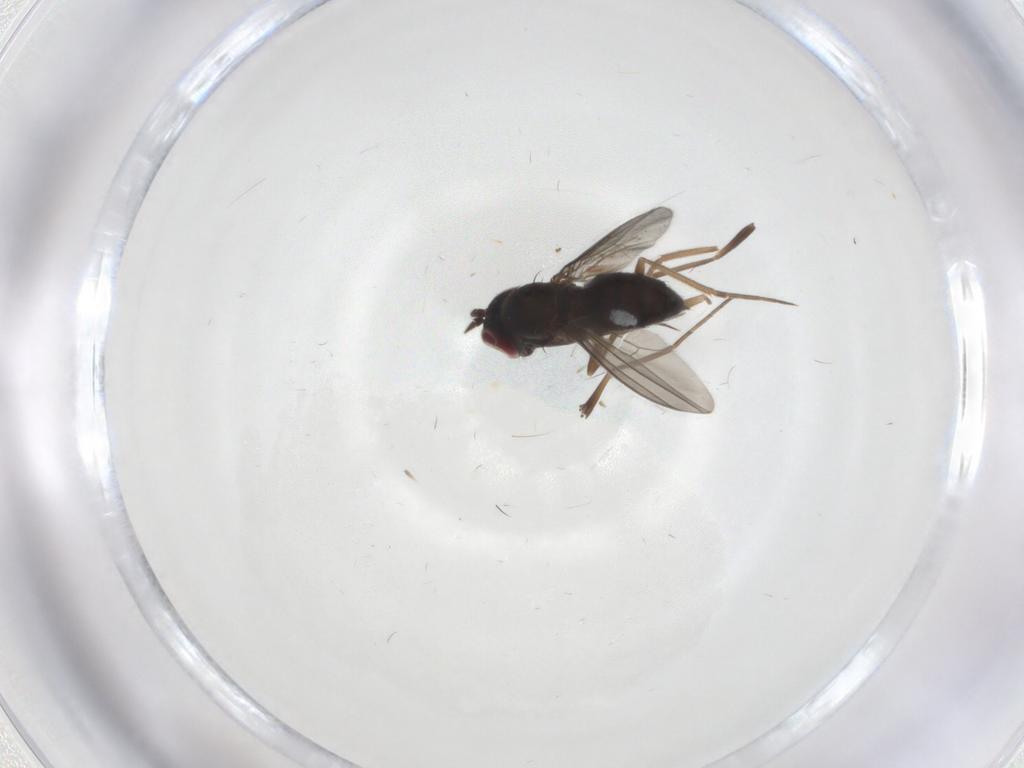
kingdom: Animalia
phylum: Arthropoda
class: Insecta
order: Diptera
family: Dolichopodidae
